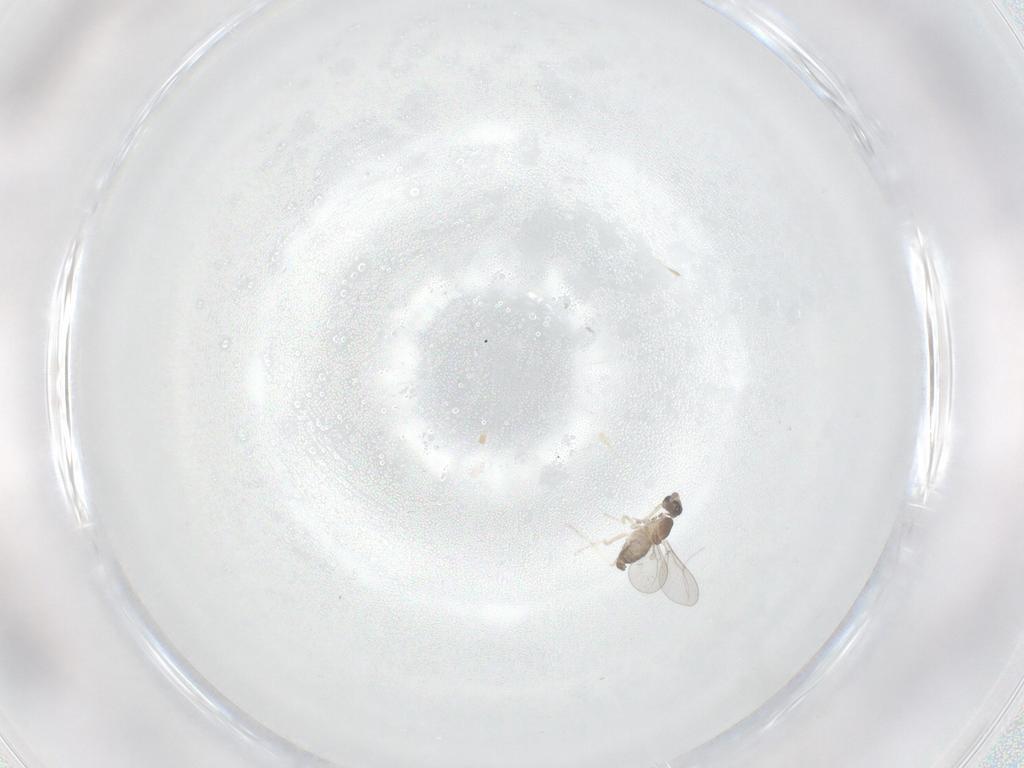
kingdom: Animalia
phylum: Arthropoda
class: Insecta
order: Diptera
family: Cecidomyiidae
